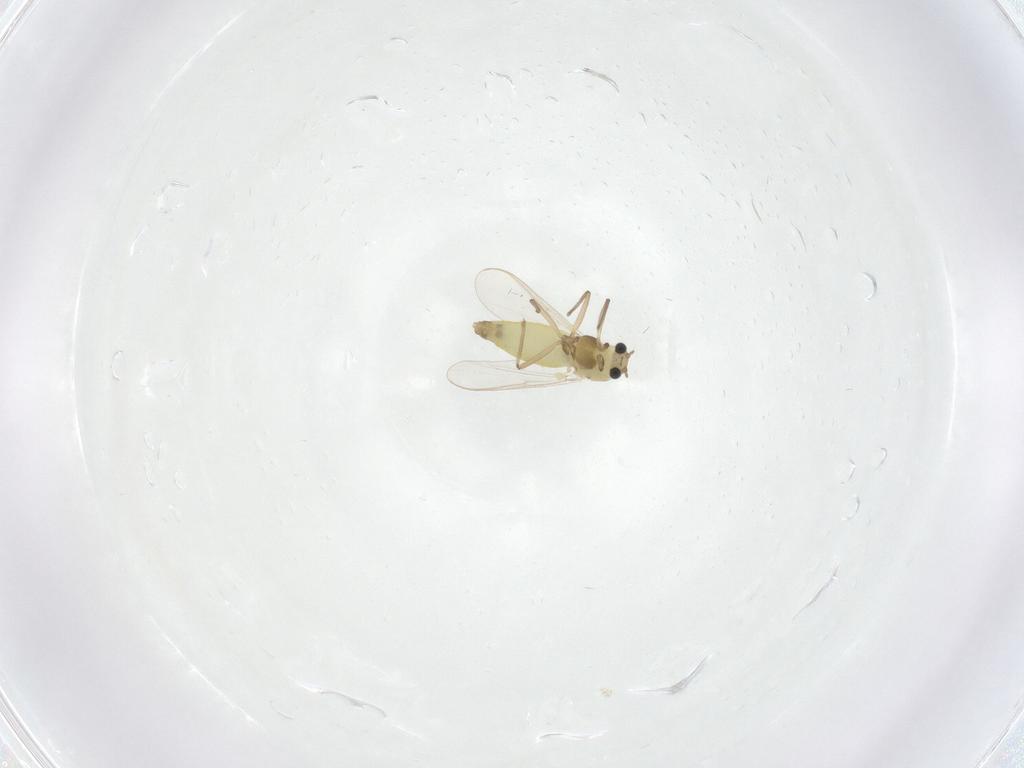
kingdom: Animalia
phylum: Arthropoda
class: Insecta
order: Diptera
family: Chironomidae
